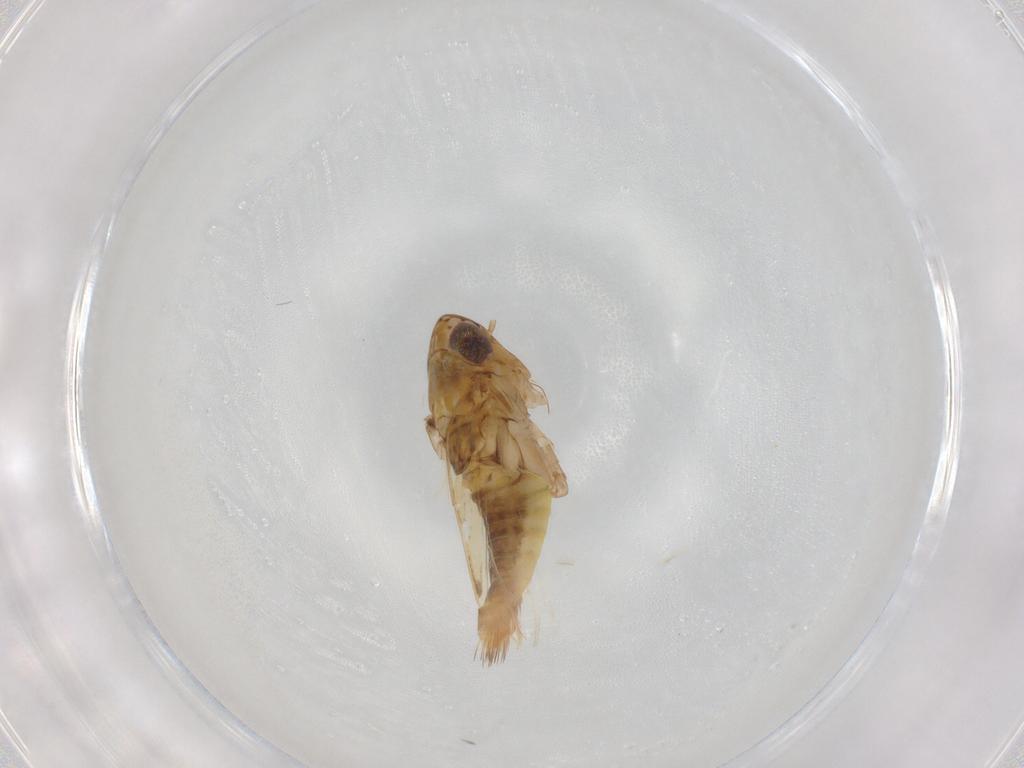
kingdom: Animalia
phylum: Arthropoda
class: Insecta
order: Hemiptera
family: Cicadellidae
